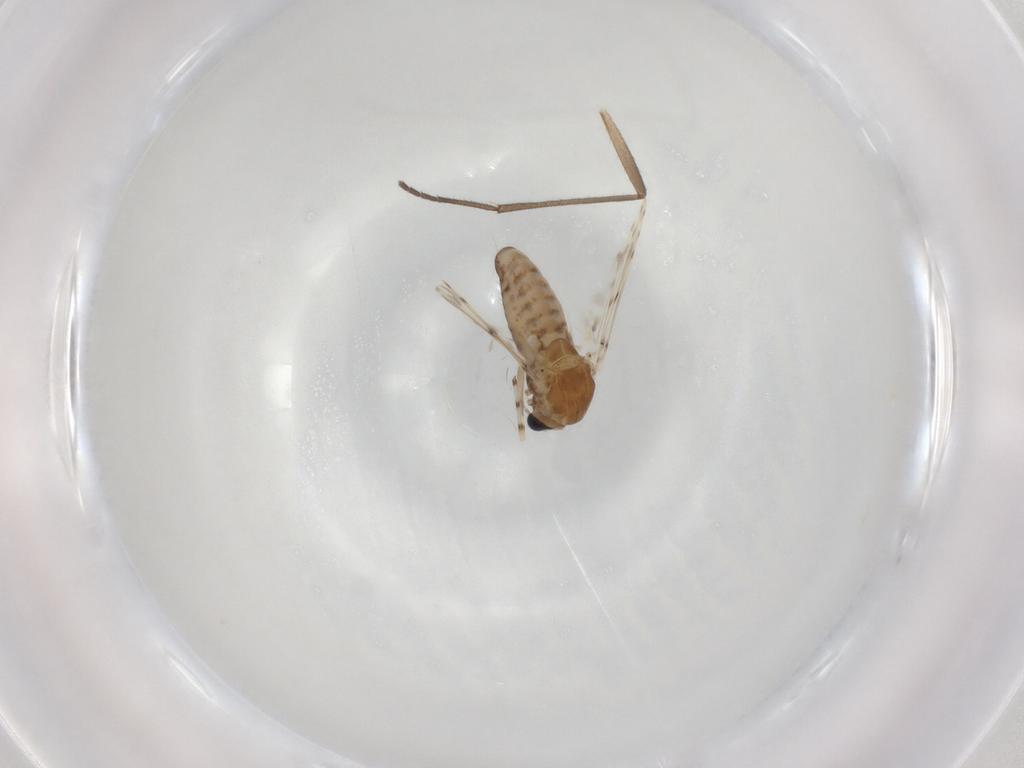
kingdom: Animalia
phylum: Arthropoda
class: Insecta
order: Diptera
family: Chironomidae
